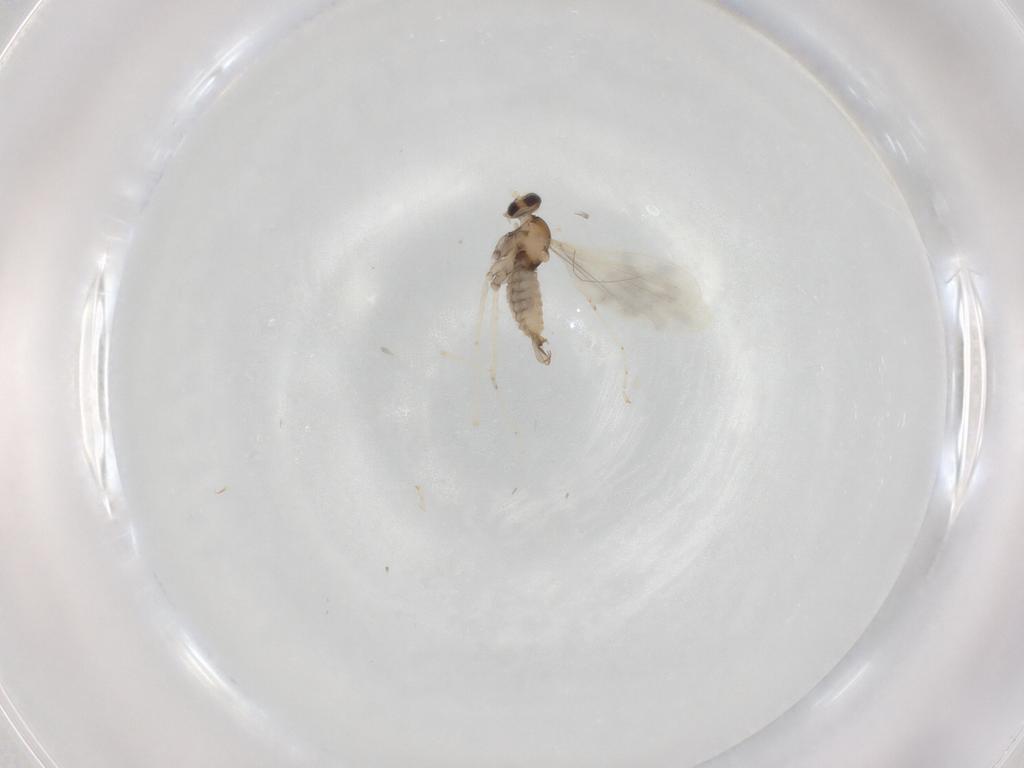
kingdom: Animalia
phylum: Arthropoda
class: Insecta
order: Diptera
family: Cecidomyiidae
